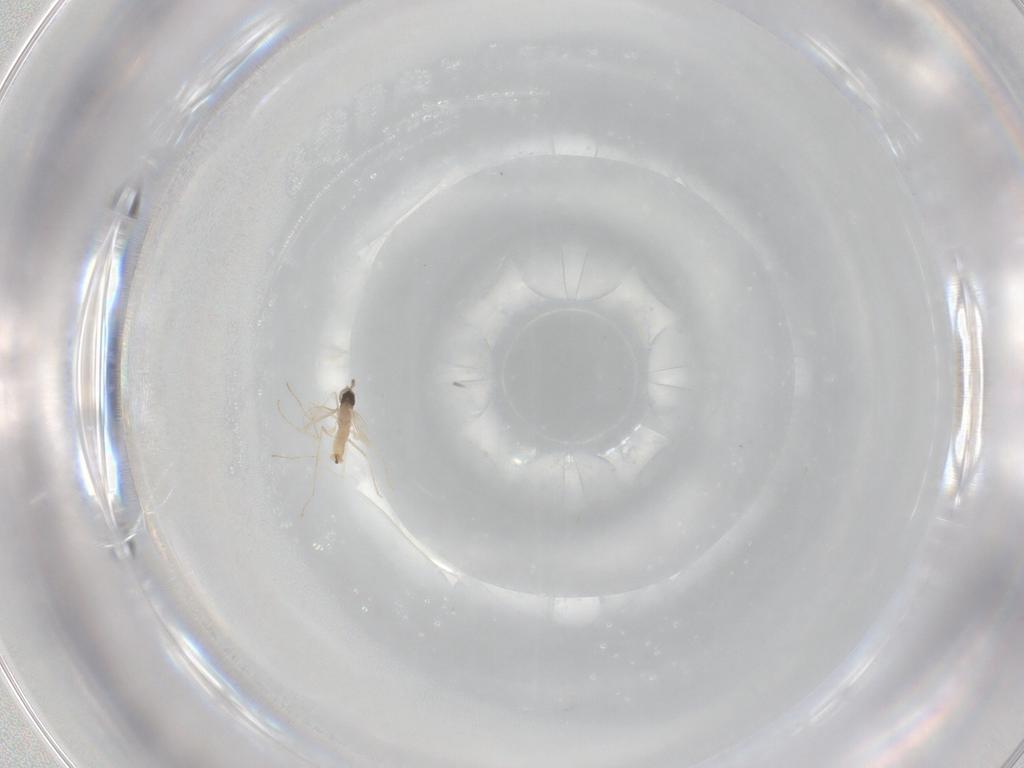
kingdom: Animalia
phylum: Arthropoda
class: Insecta
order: Diptera
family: Cecidomyiidae
